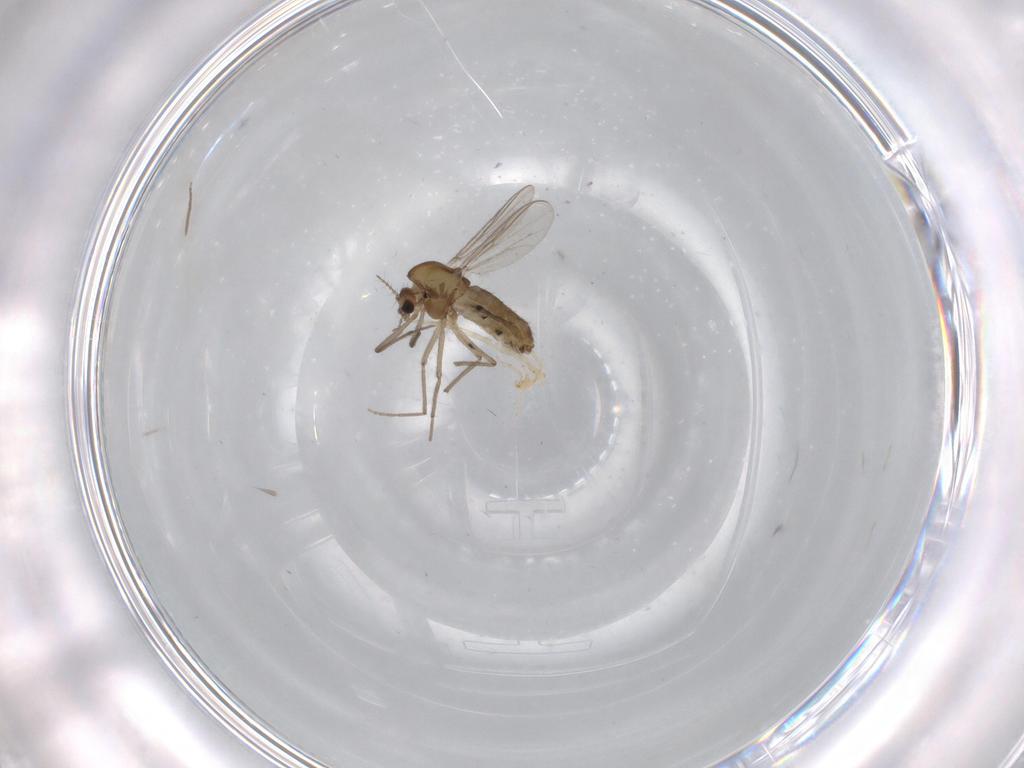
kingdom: Animalia
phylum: Arthropoda
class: Insecta
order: Diptera
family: Chironomidae
